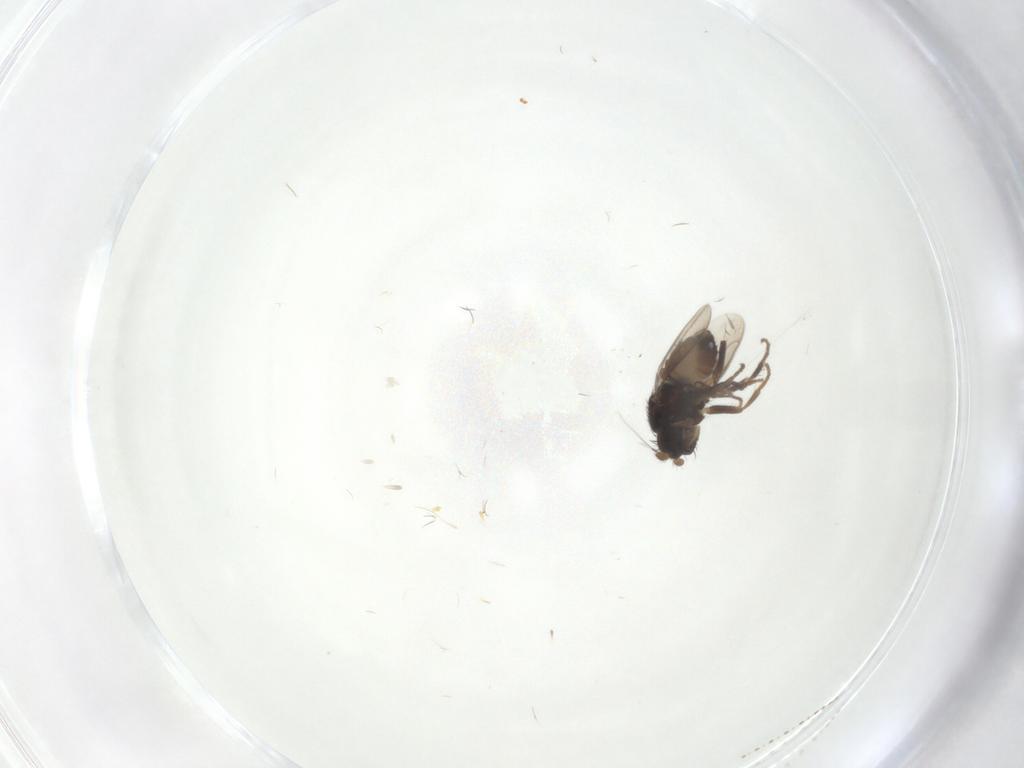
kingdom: Animalia
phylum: Arthropoda
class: Insecta
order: Diptera
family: Sphaeroceridae
